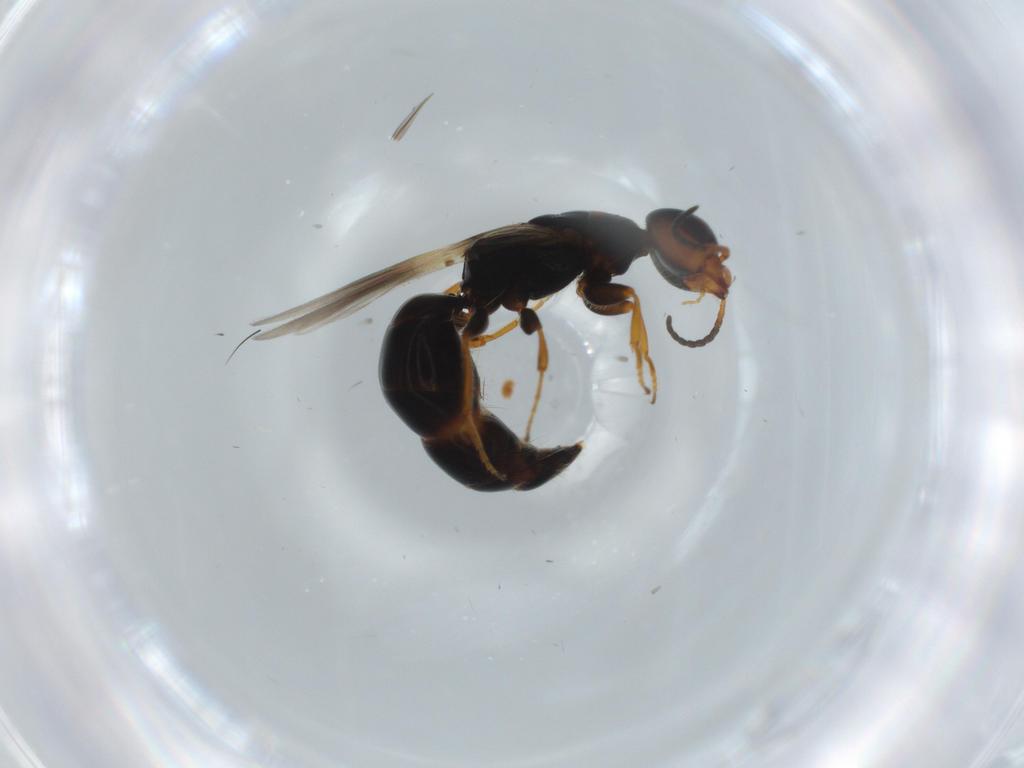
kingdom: Animalia
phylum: Arthropoda
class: Insecta
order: Hymenoptera
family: Bethylidae
